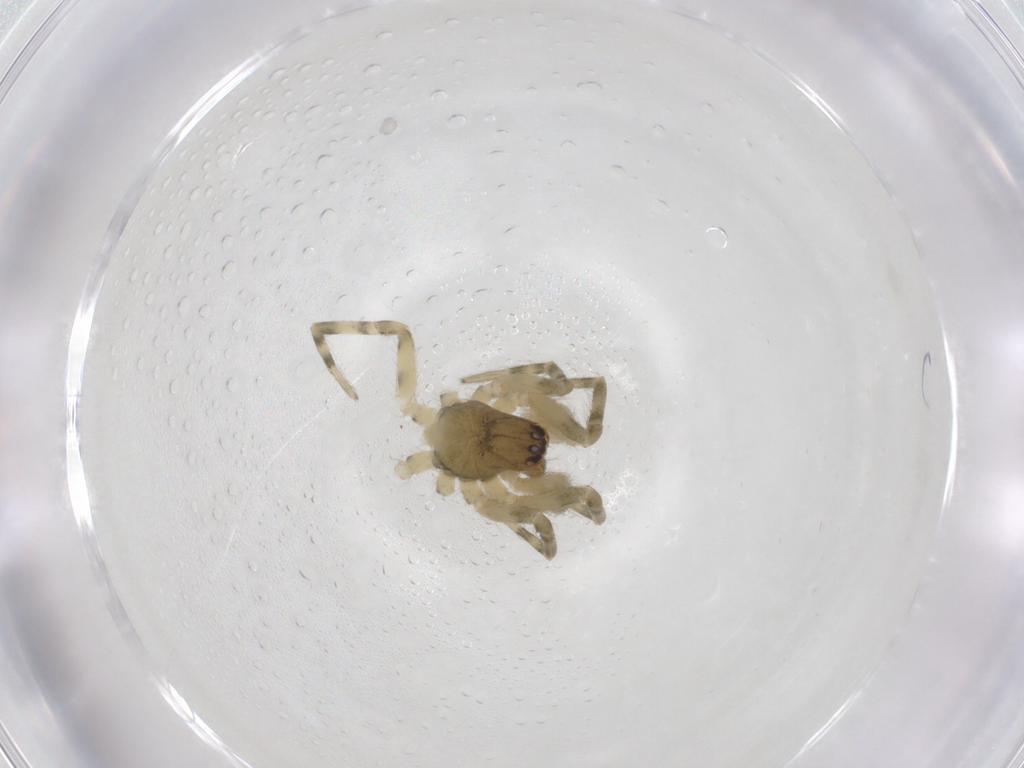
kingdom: Animalia
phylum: Arthropoda
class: Arachnida
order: Araneae
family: Dictynidae
